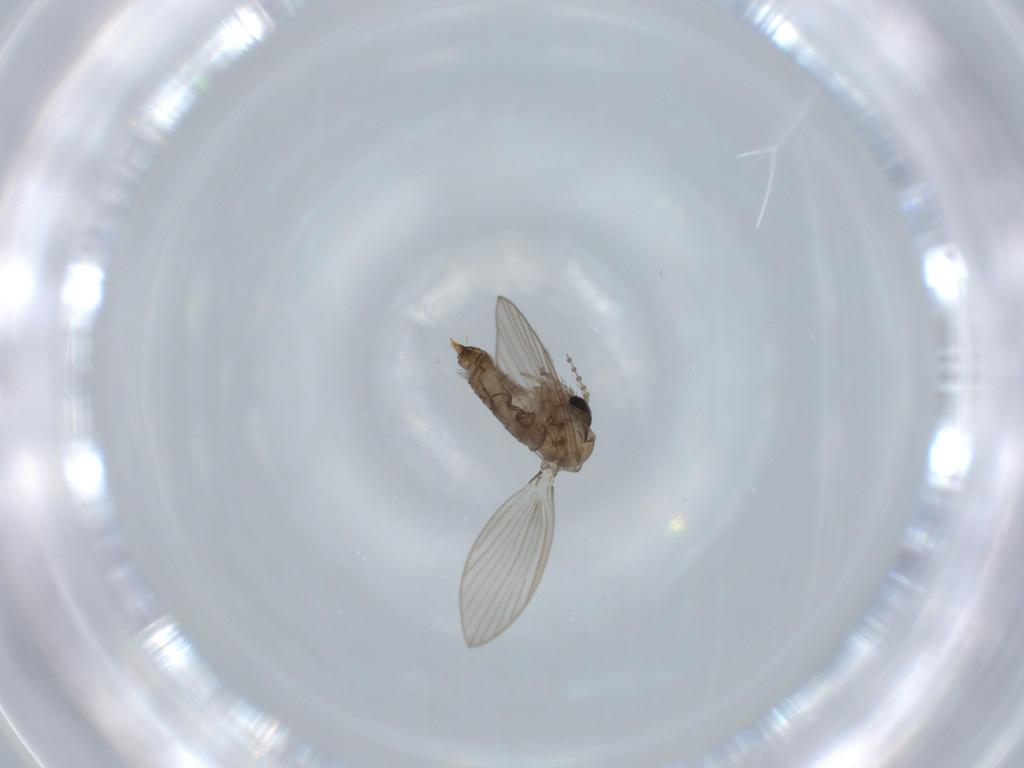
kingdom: Animalia
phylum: Arthropoda
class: Insecta
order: Diptera
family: Psychodidae
